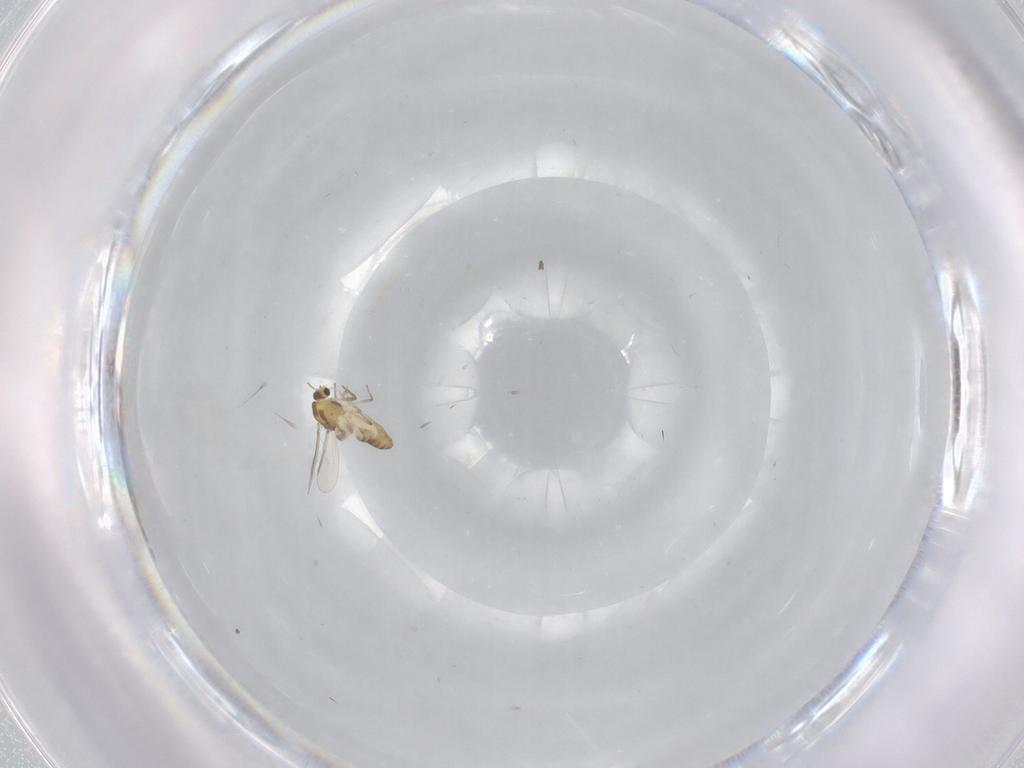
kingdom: Animalia
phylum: Arthropoda
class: Insecta
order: Diptera
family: Chironomidae
